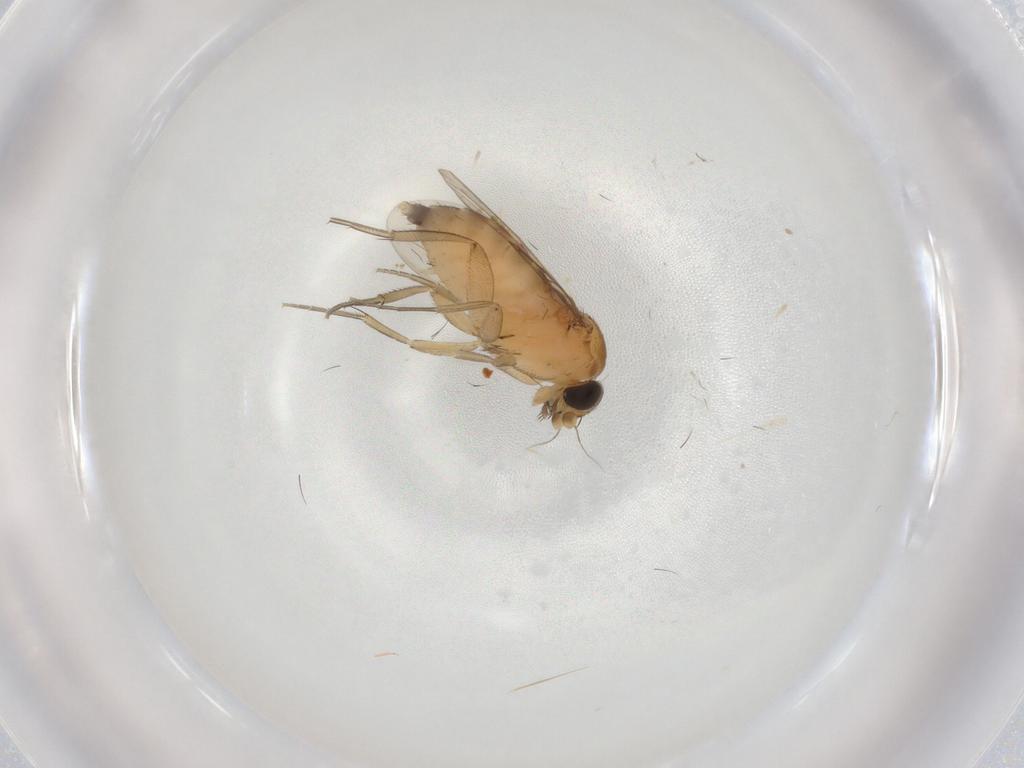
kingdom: Animalia
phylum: Arthropoda
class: Insecta
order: Diptera
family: Phoridae
